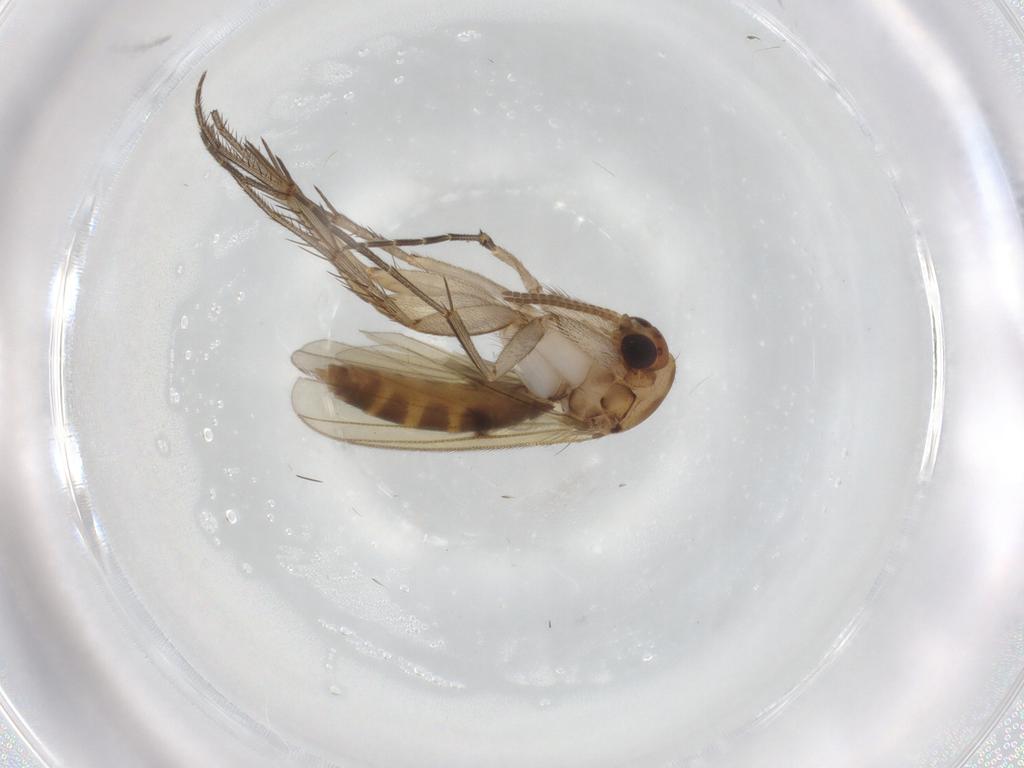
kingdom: Animalia
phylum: Arthropoda
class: Insecta
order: Diptera
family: Chironomidae
